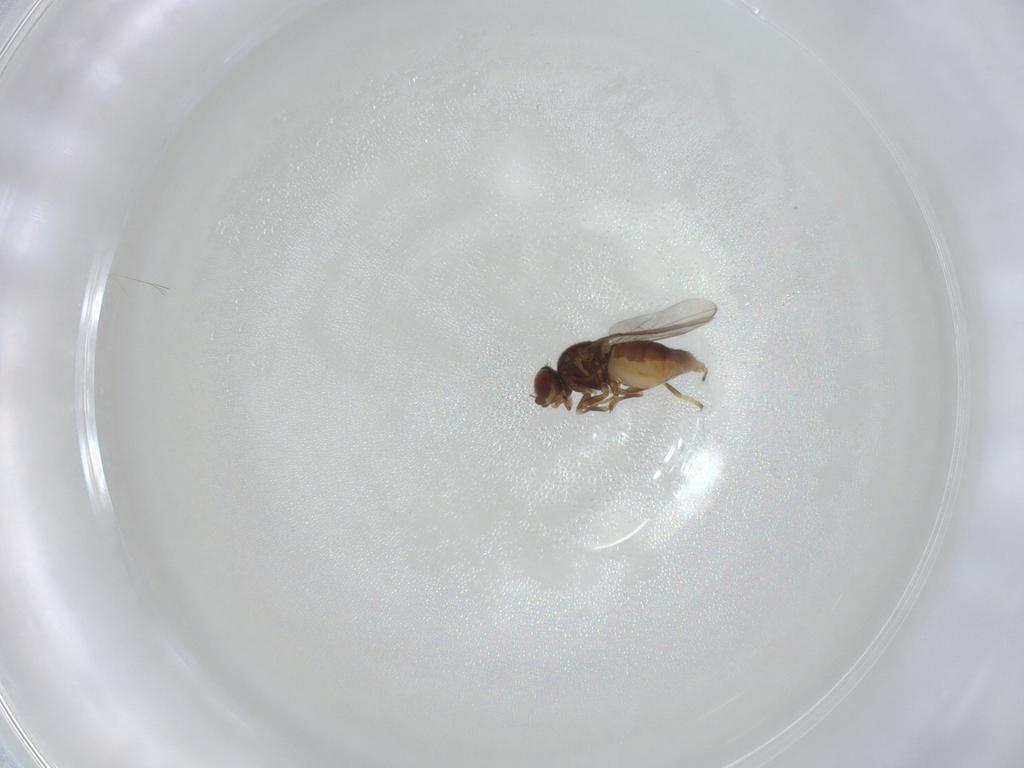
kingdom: Animalia
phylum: Arthropoda
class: Insecta
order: Diptera
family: Chloropidae
